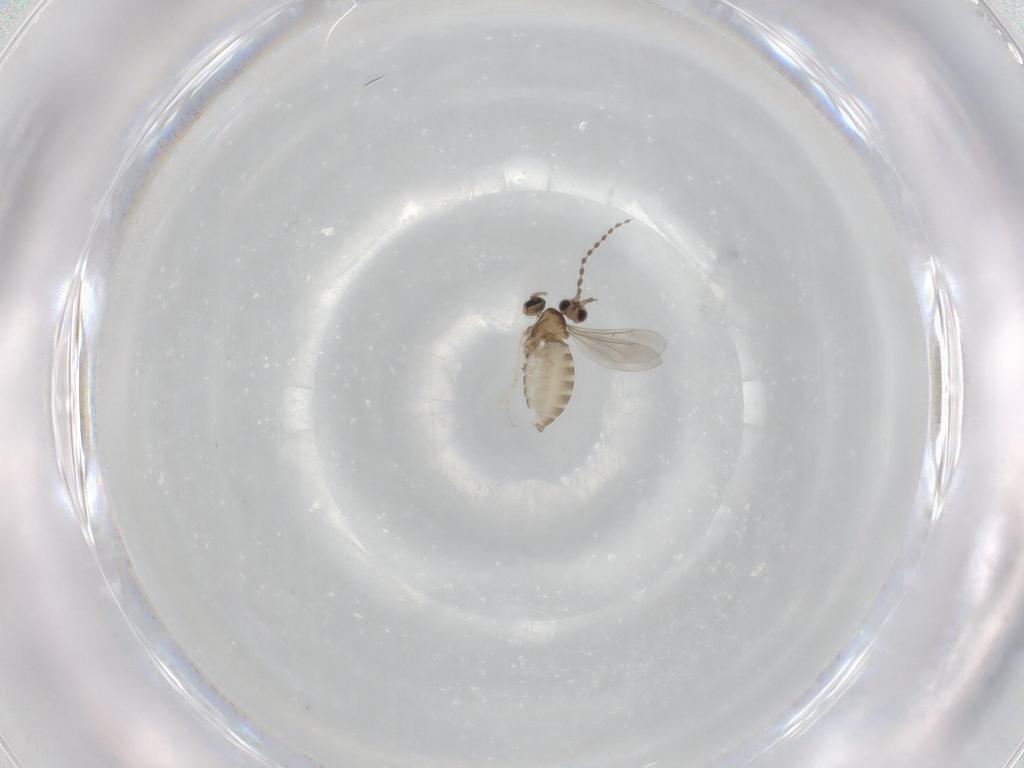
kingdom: Animalia
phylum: Arthropoda
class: Insecta
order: Diptera
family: Cecidomyiidae
